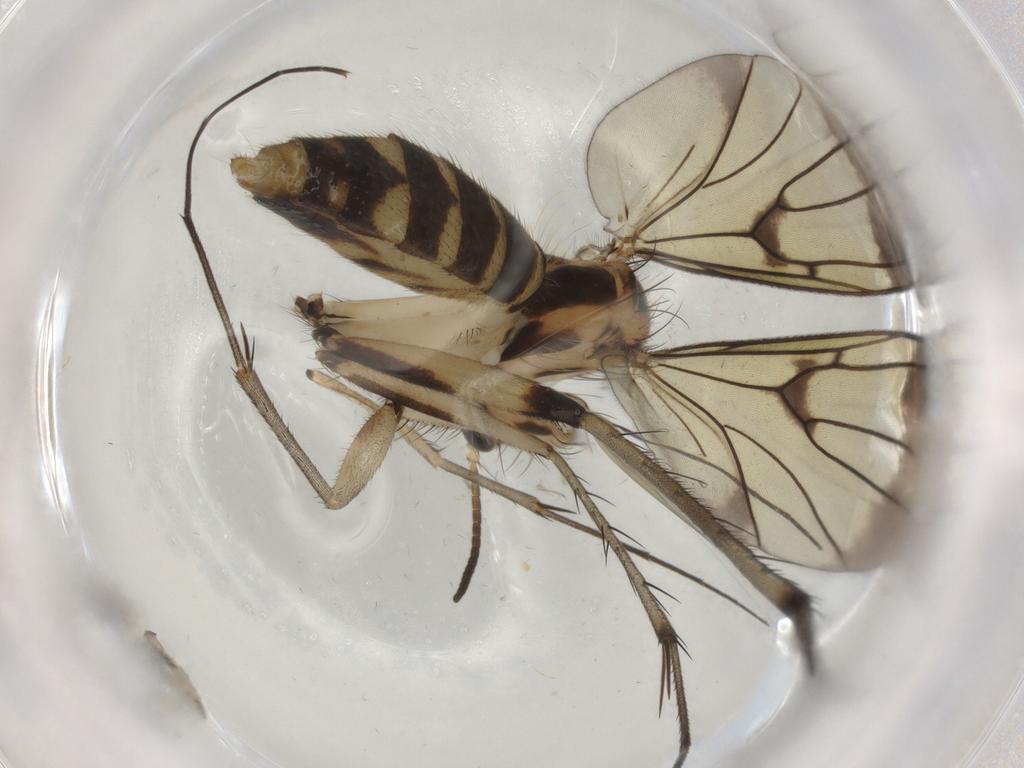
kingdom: Animalia
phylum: Arthropoda
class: Insecta
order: Diptera
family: Mycetophilidae
